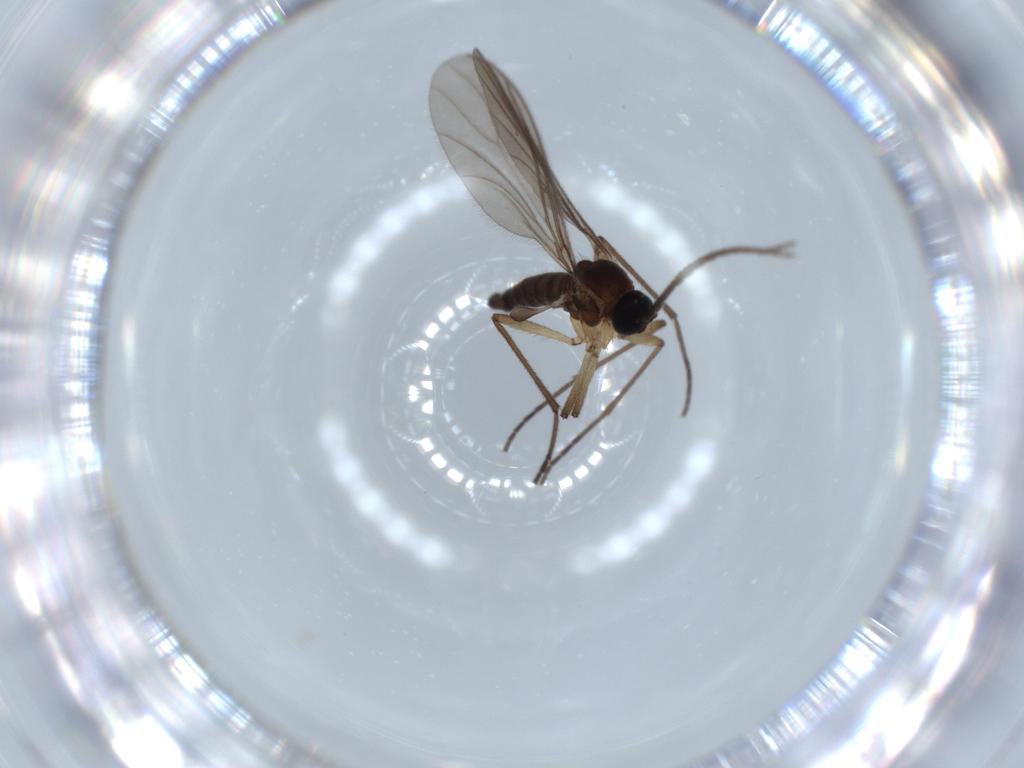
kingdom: Animalia
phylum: Arthropoda
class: Insecta
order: Diptera
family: Sciaridae
